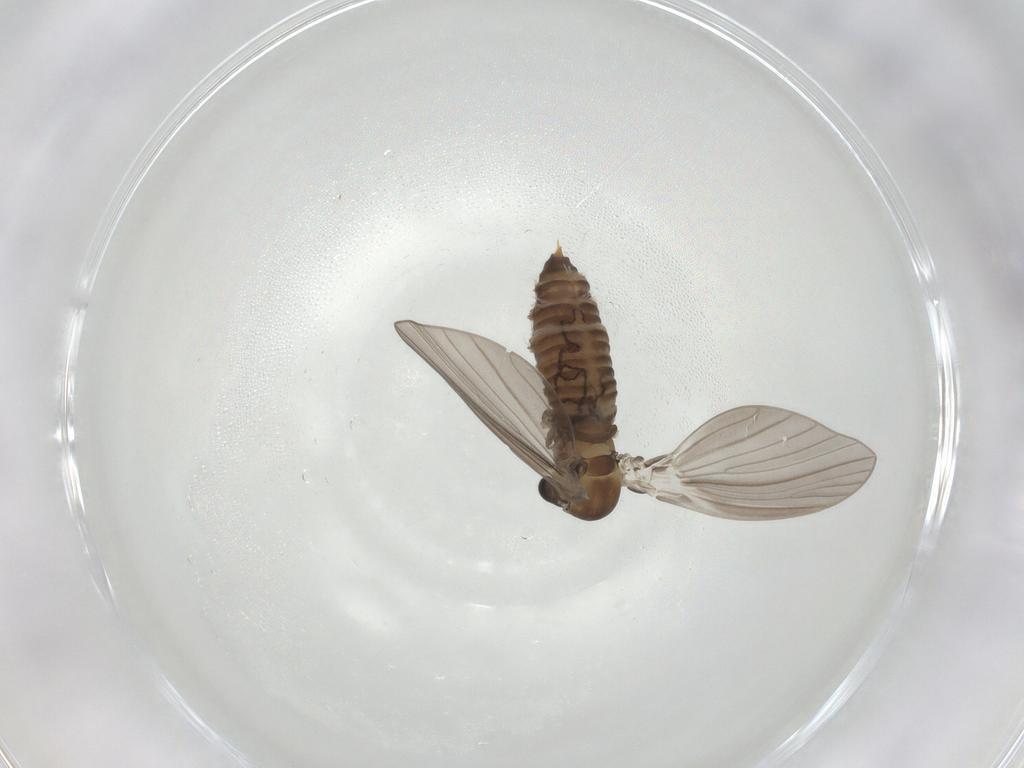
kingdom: Animalia
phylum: Arthropoda
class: Insecta
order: Diptera
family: Psychodidae
